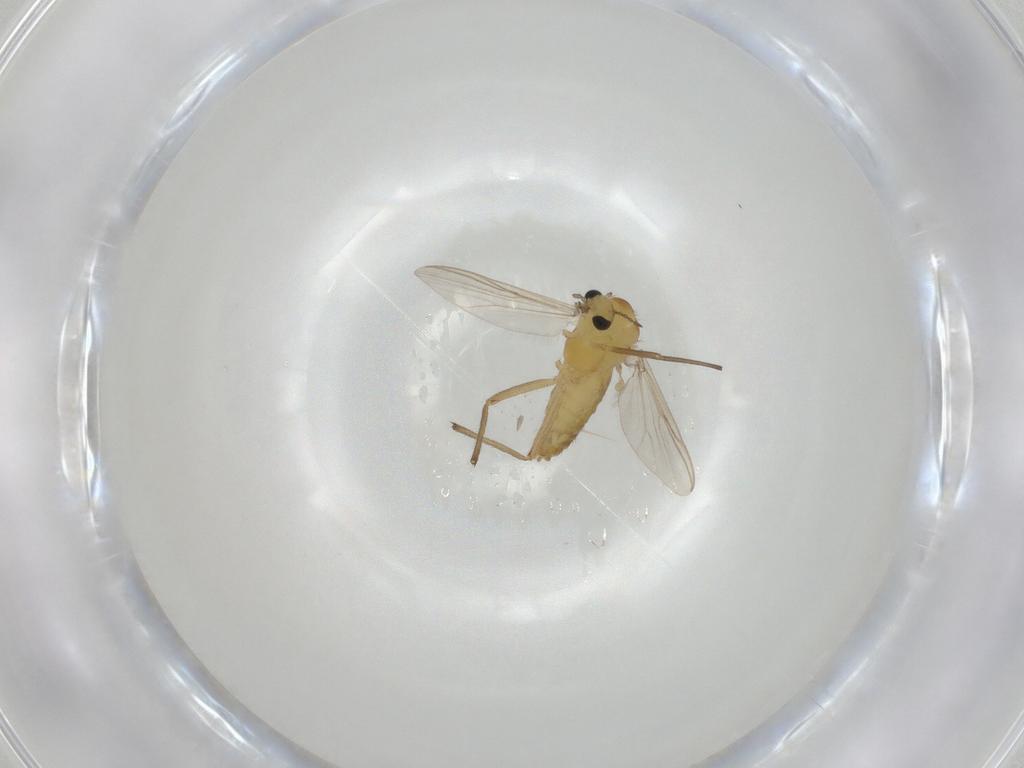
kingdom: Animalia
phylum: Arthropoda
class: Insecta
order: Diptera
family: Chironomidae
